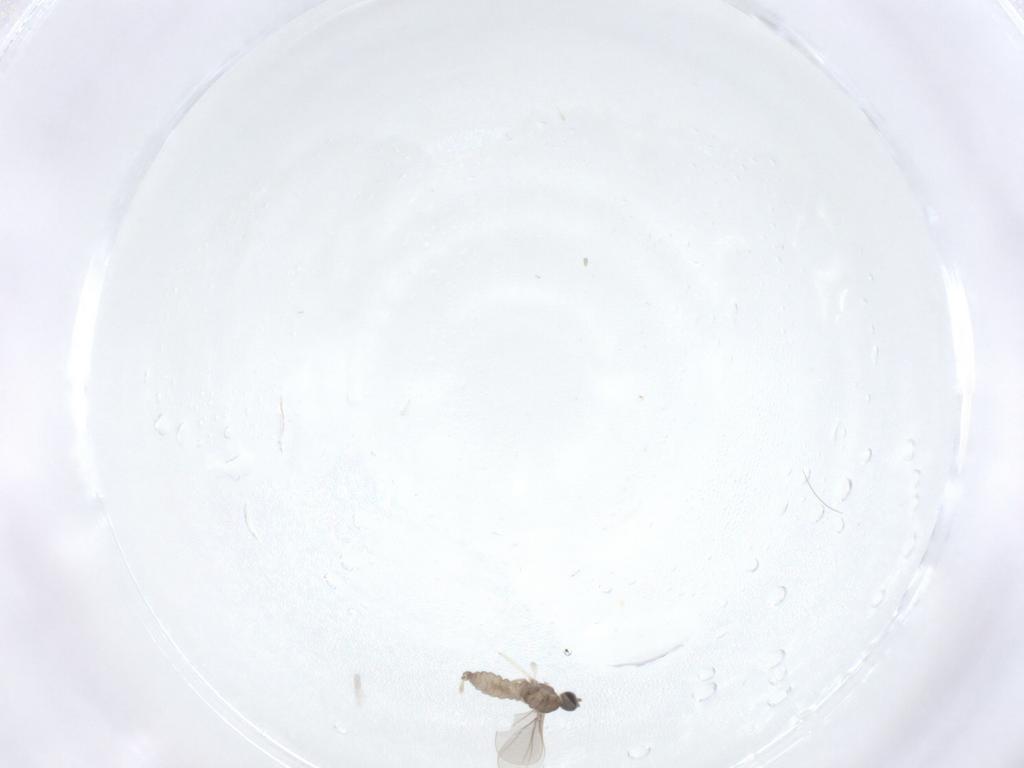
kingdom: Animalia
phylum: Arthropoda
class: Insecta
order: Diptera
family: Cecidomyiidae
